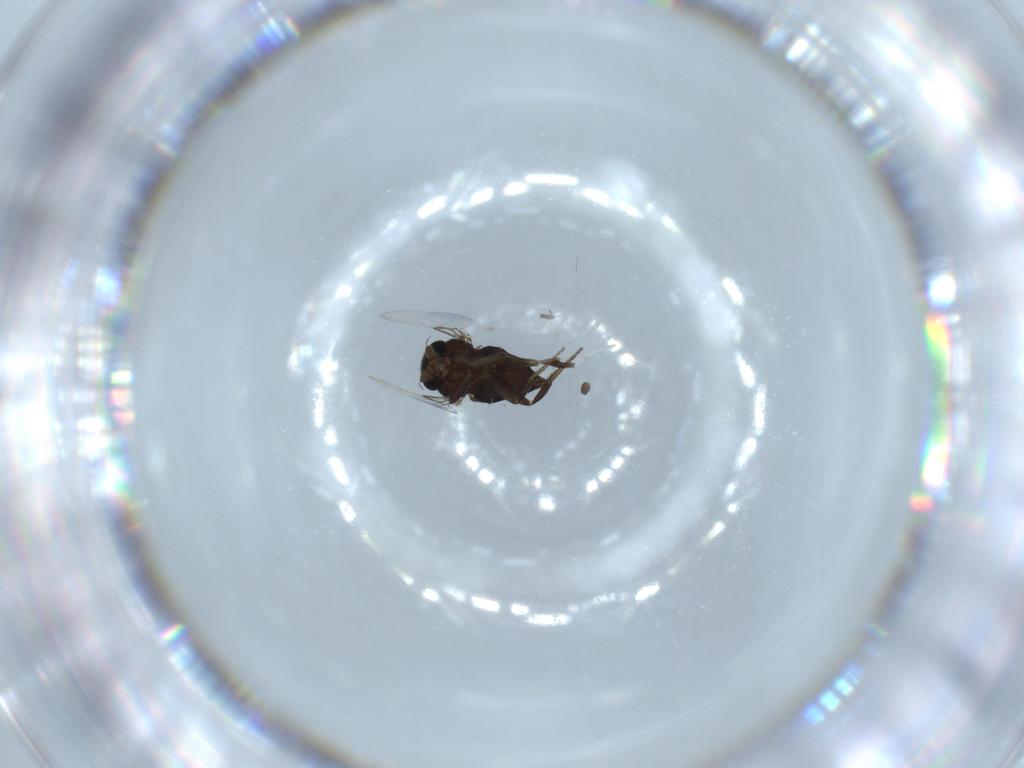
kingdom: Animalia
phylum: Arthropoda
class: Insecta
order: Diptera
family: Phoridae
